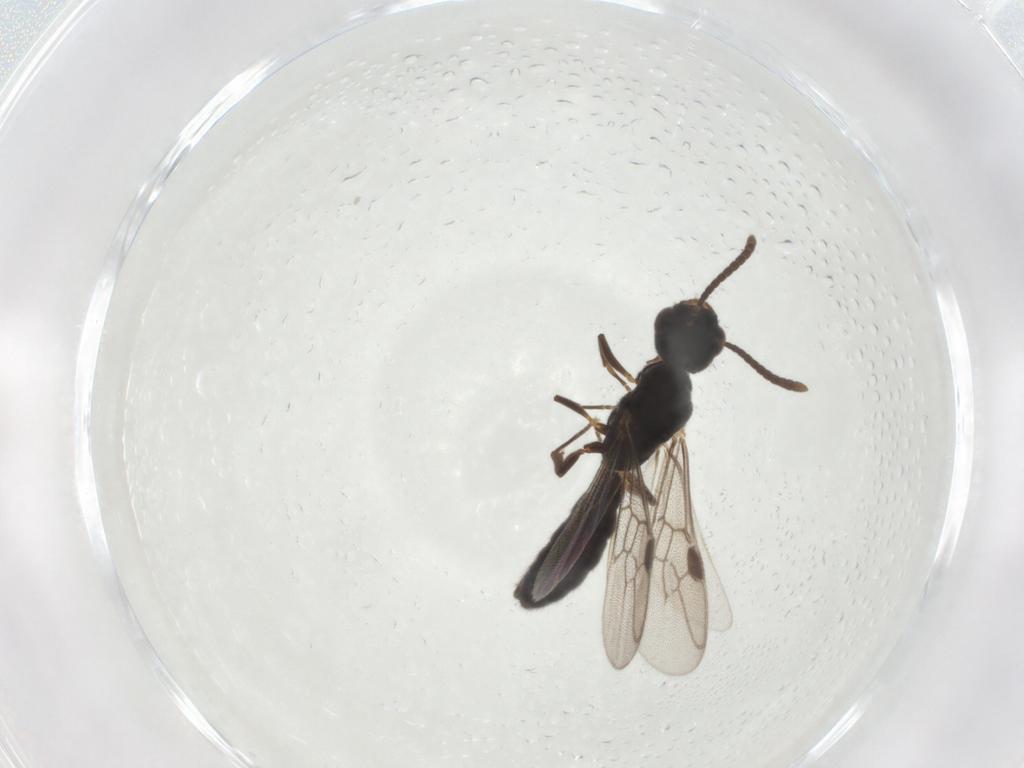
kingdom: Animalia
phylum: Arthropoda
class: Insecta
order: Hymenoptera
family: Formicidae
